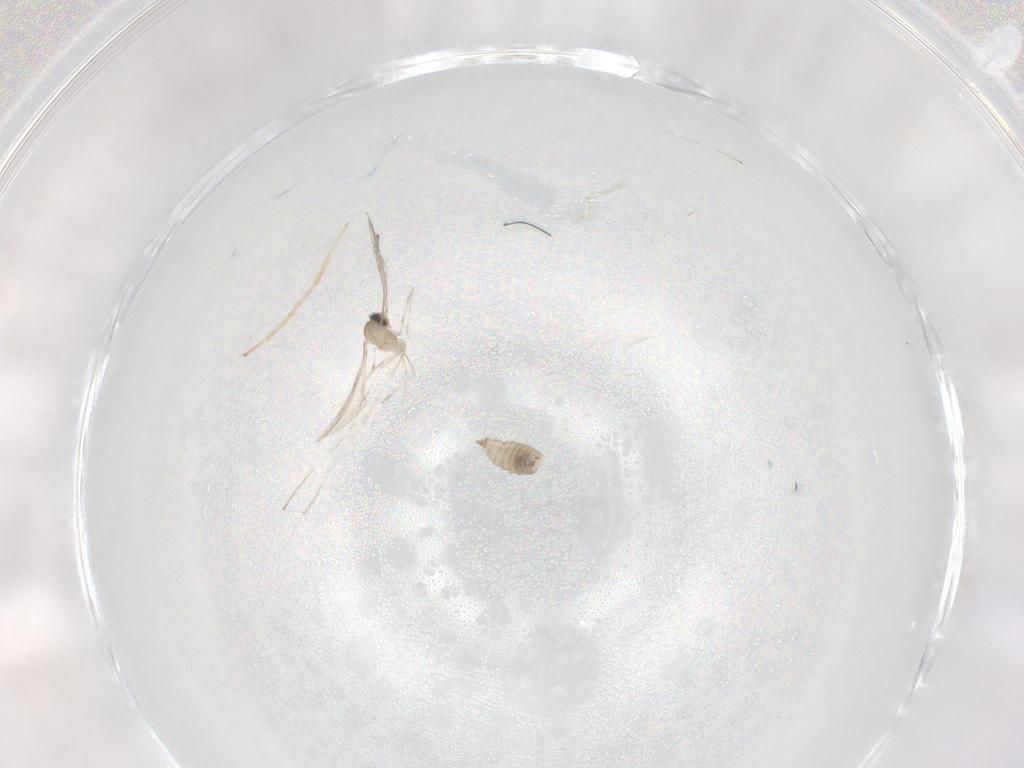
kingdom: Animalia
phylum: Arthropoda
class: Insecta
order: Diptera
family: Cecidomyiidae
